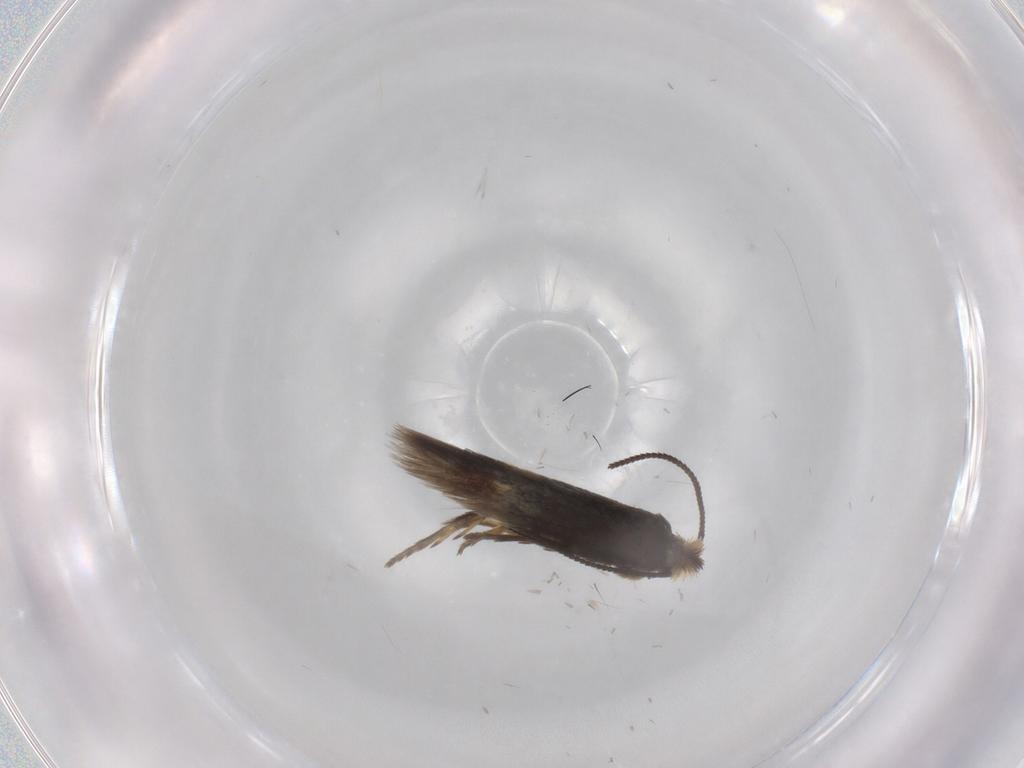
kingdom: Animalia
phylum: Arthropoda
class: Insecta
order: Lepidoptera
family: Nepticulidae
